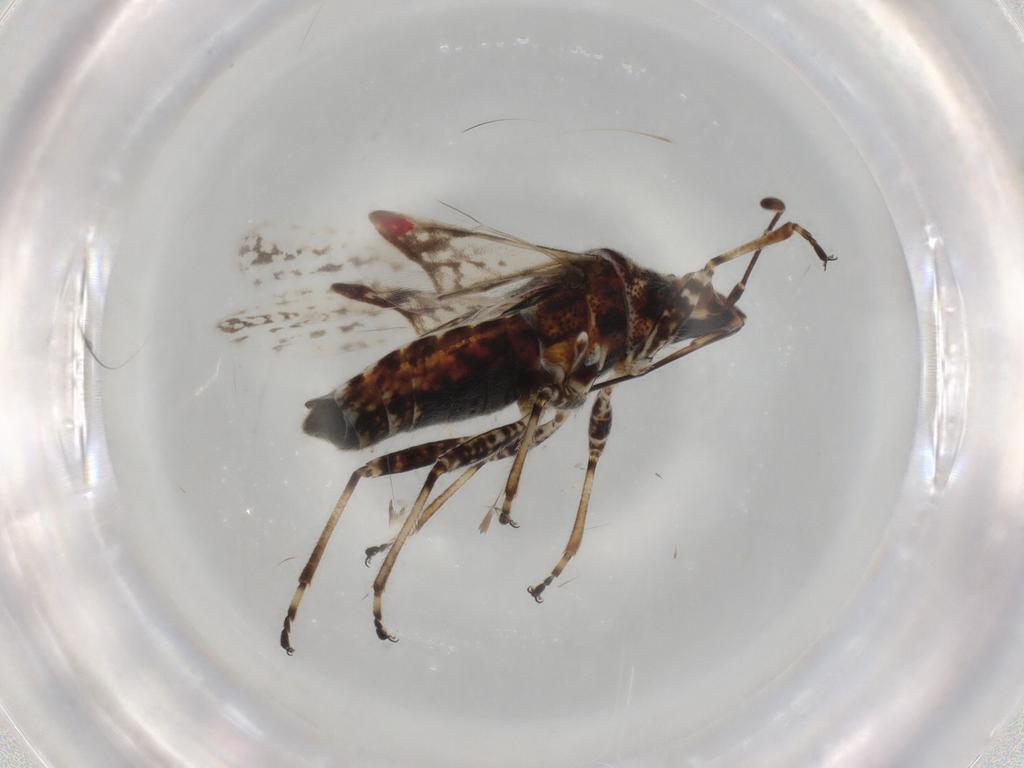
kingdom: Animalia
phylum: Arthropoda
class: Insecta
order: Hemiptera
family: Lygaeidae
